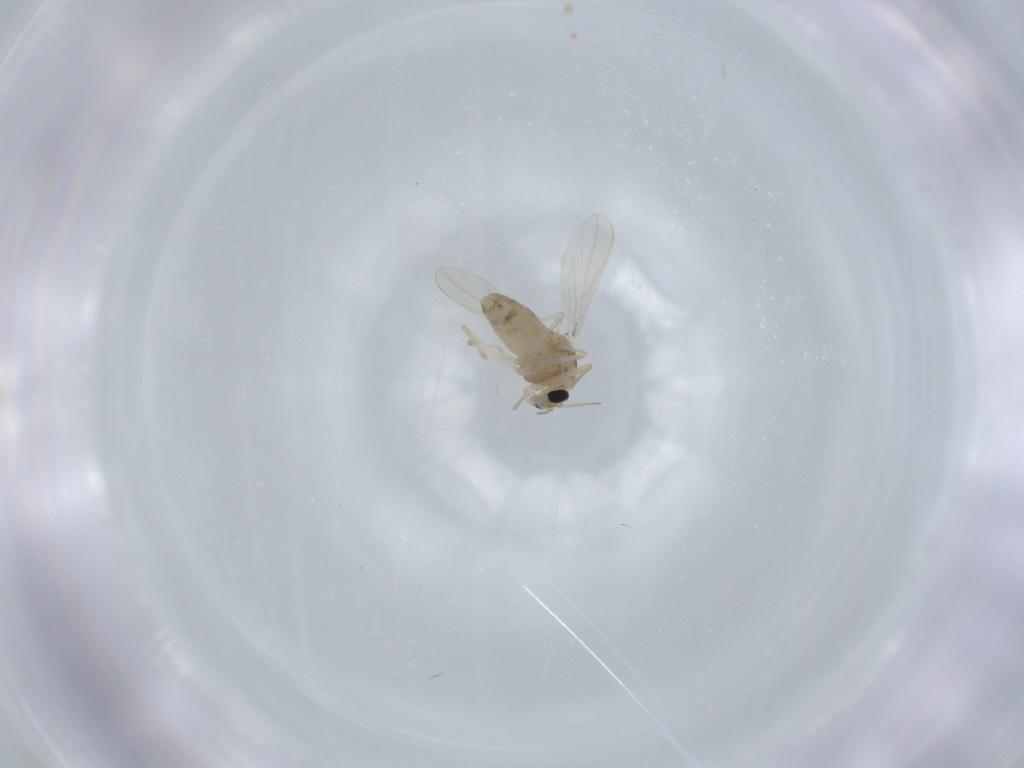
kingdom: Animalia
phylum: Arthropoda
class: Insecta
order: Diptera
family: Chironomidae
